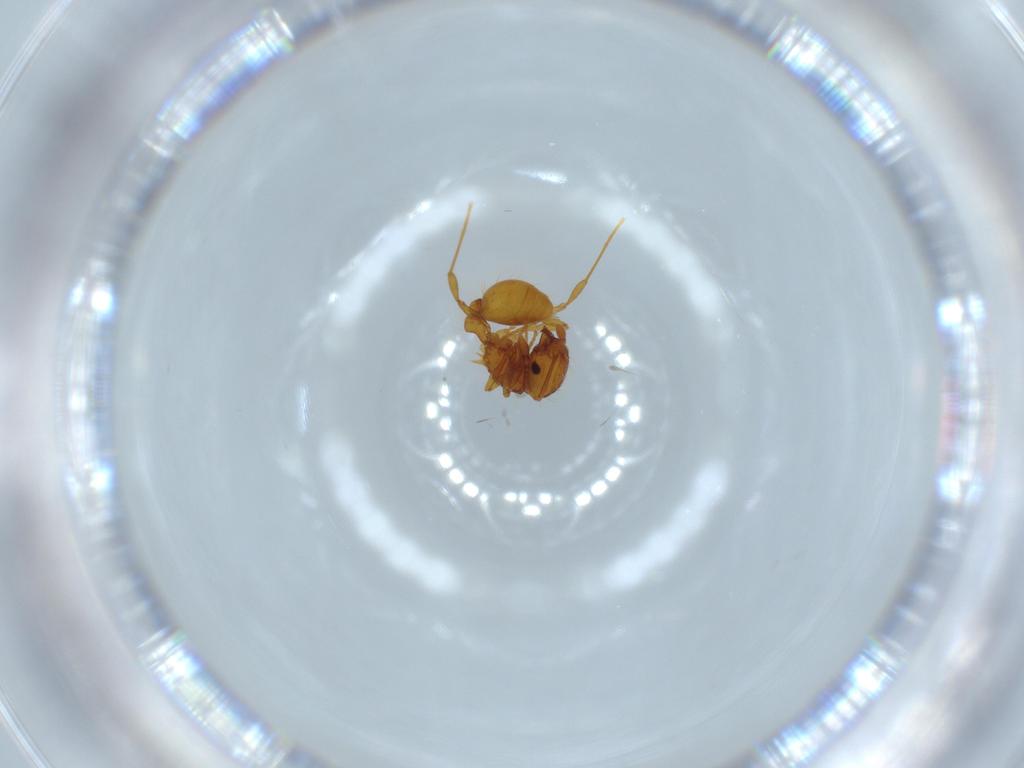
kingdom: Animalia
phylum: Arthropoda
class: Insecta
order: Hymenoptera
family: Formicidae
